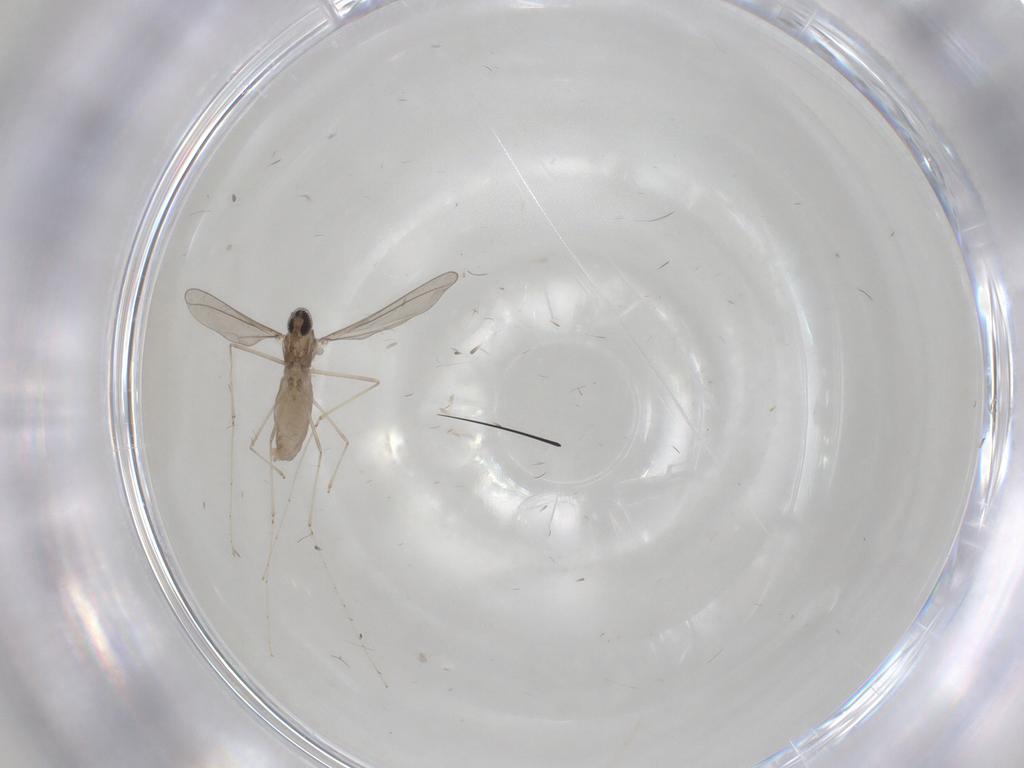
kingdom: Animalia
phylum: Arthropoda
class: Insecta
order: Diptera
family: Cecidomyiidae
